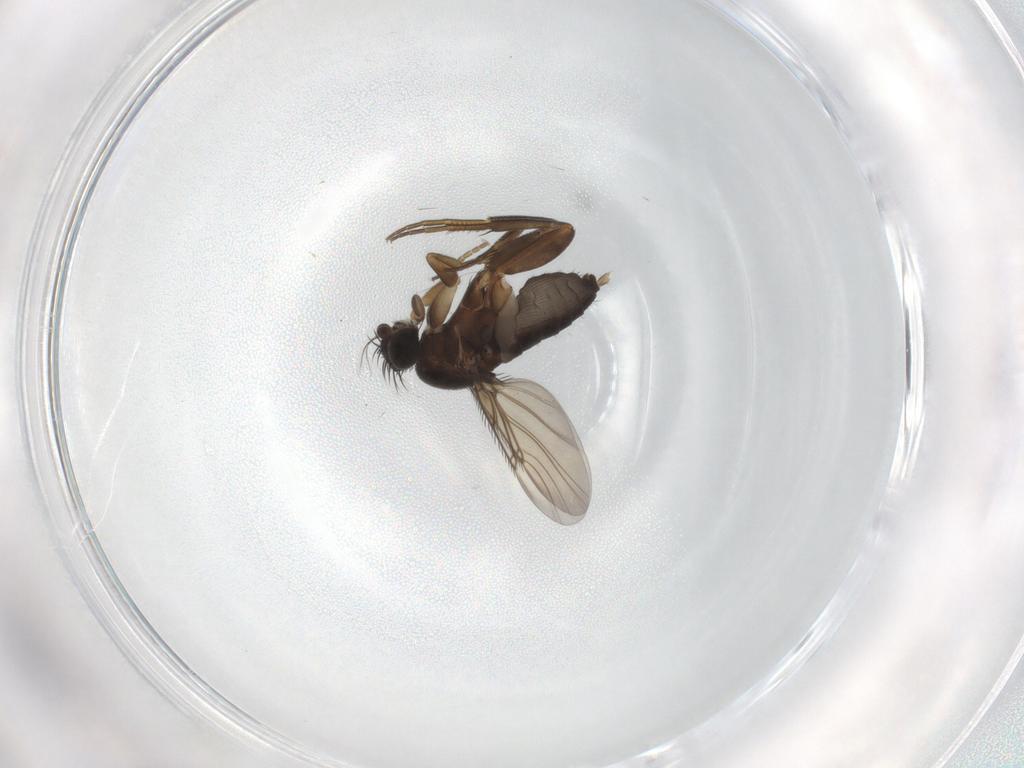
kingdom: Animalia
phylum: Arthropoda
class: Insecta
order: Diptera
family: Phoridae
